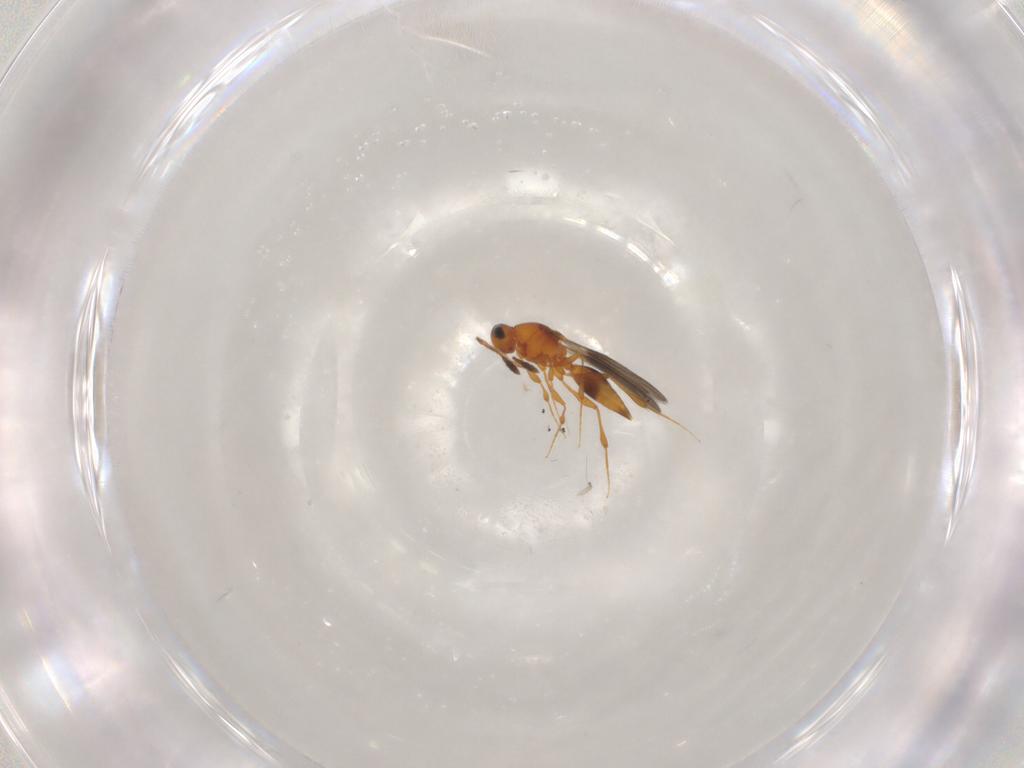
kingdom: Animalia
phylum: Arthropoda
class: Insecta
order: Hymenoptera
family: Platygastridae
